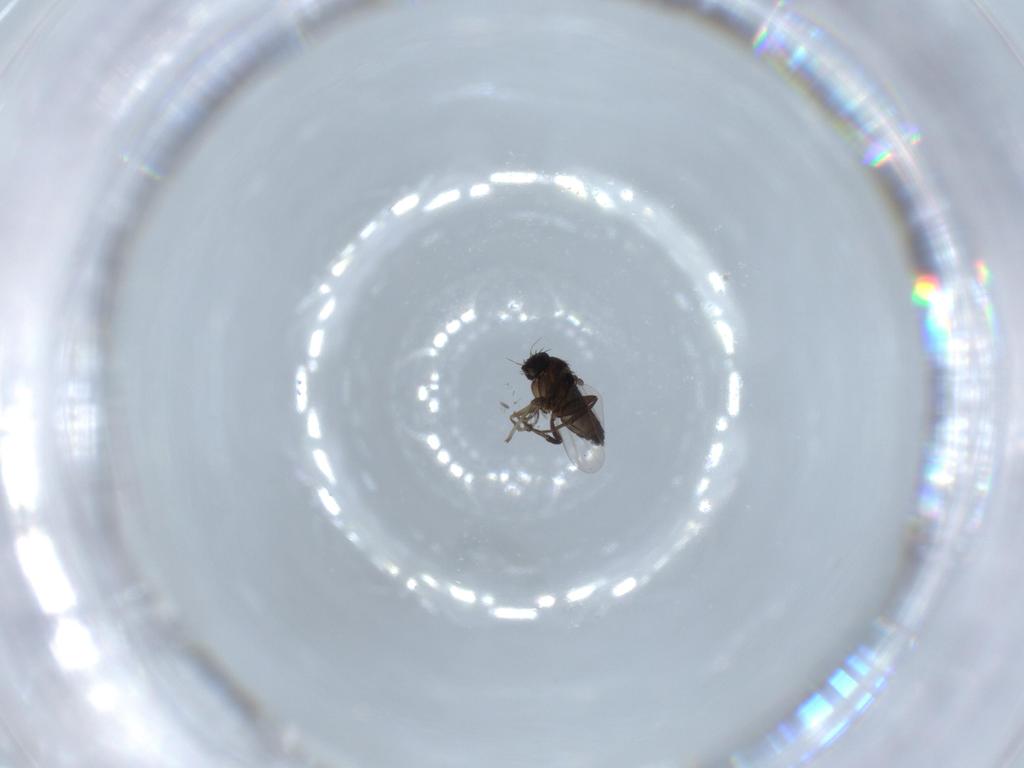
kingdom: Animalia
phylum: Arthropoda
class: Insecta
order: Diptera
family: Phoridae
